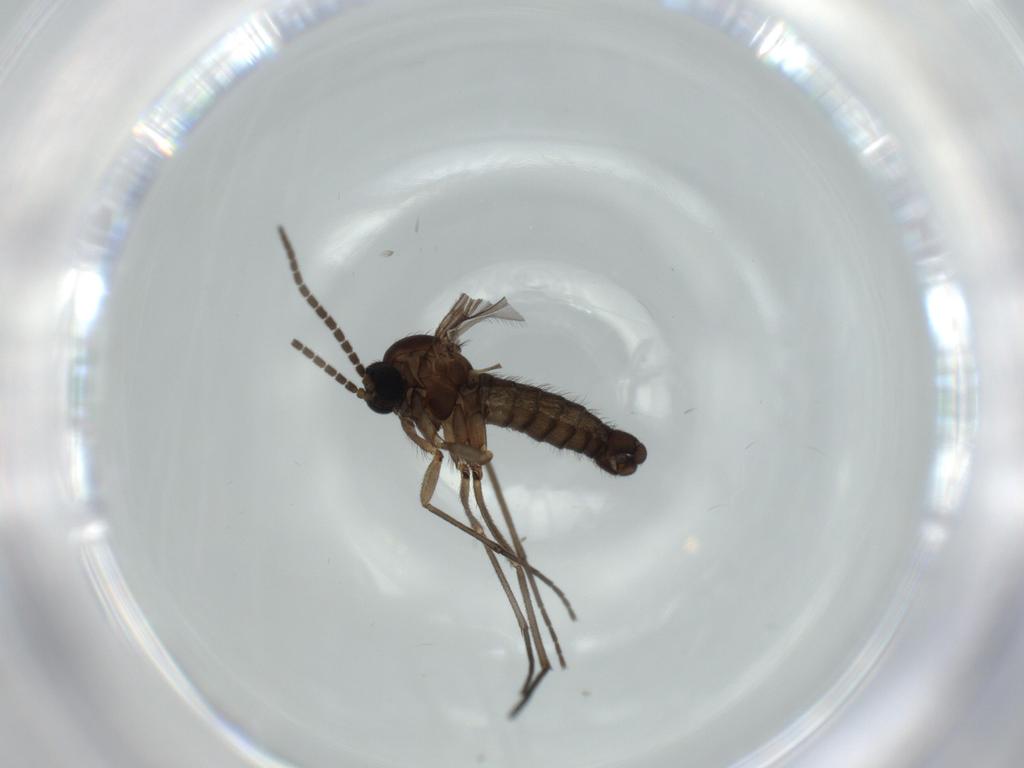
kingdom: Animalia
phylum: Arthropoda
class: Insecta
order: Diptera
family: Sciaridae
